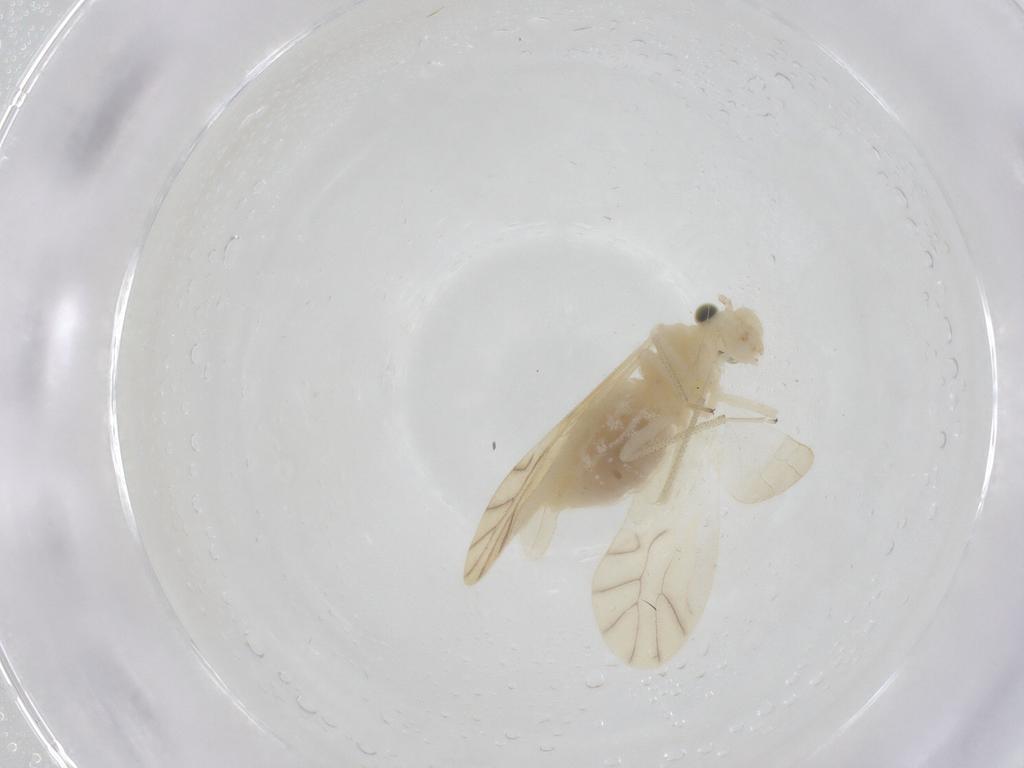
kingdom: Animalia
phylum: Arthropoda
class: Insecta
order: Psocodea
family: Caeciliusidae
